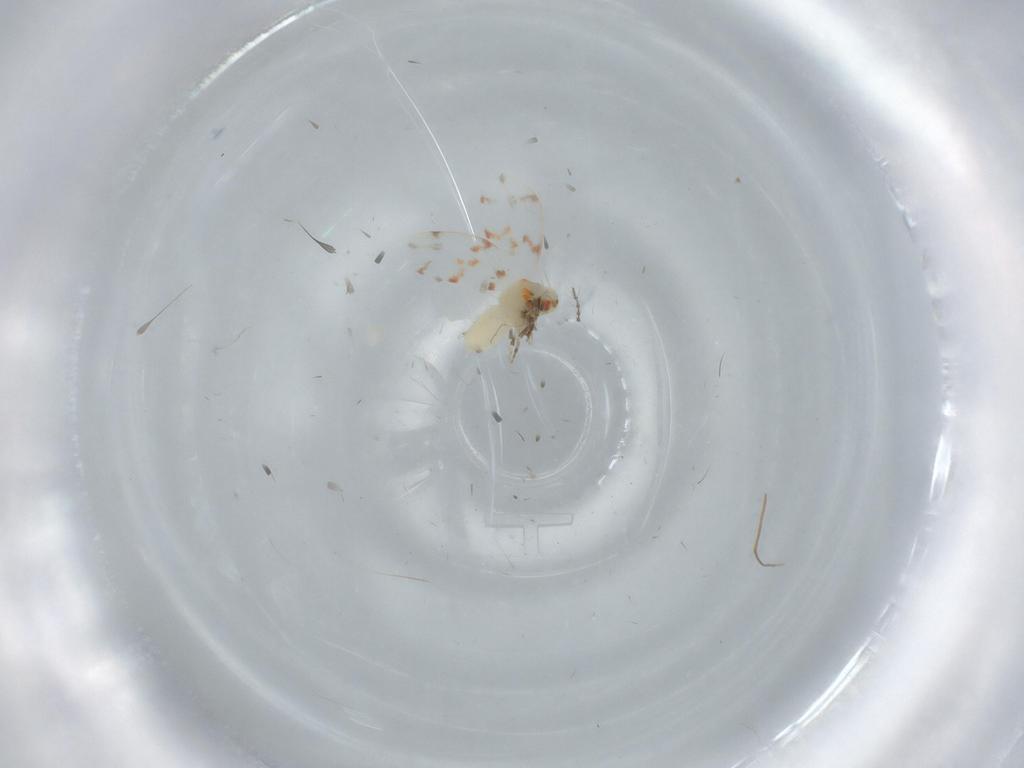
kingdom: Animalia
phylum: Arthropoda
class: Insecta
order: Hemiptera
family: Aleyrodidae
